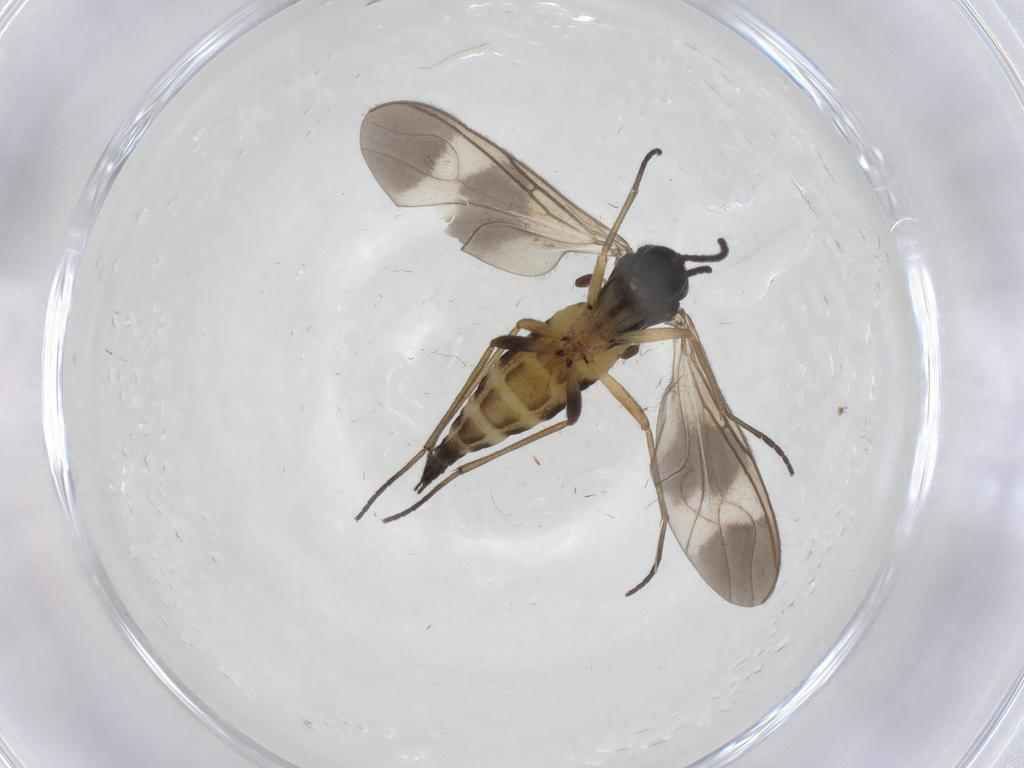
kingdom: Animalia
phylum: Arthropoda
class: Insecta
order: Diptera
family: Sciaridae
